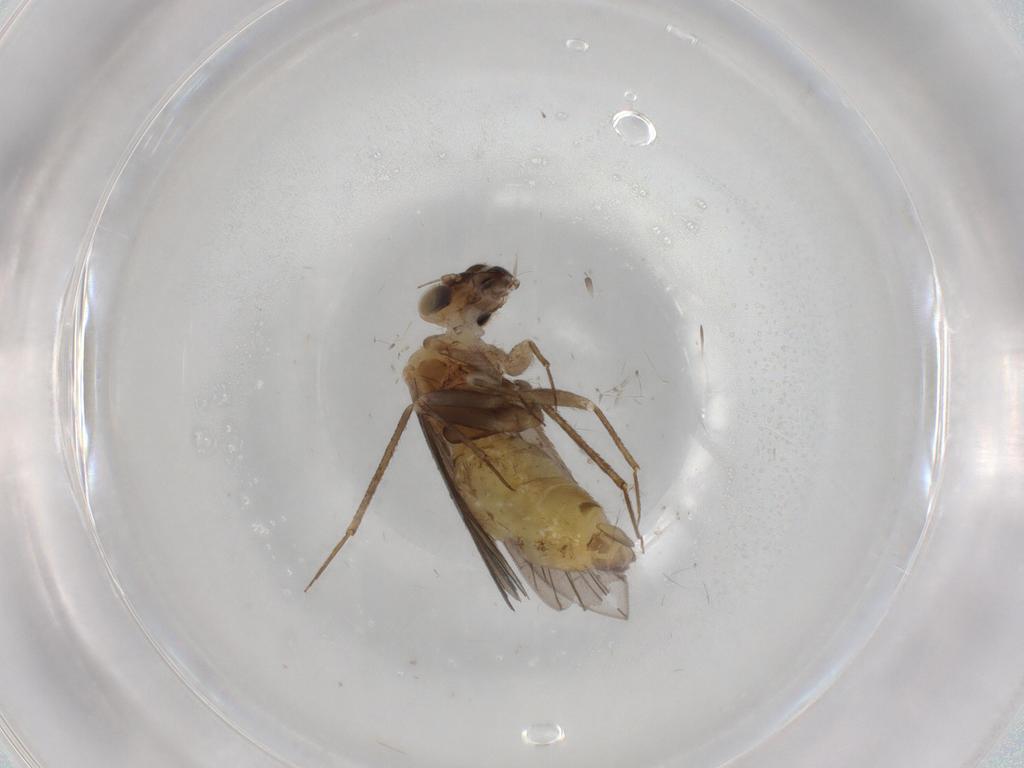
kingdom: Animalia
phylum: Arthropoda
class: Insecta
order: Psocodea
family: Lepidopsocidae
